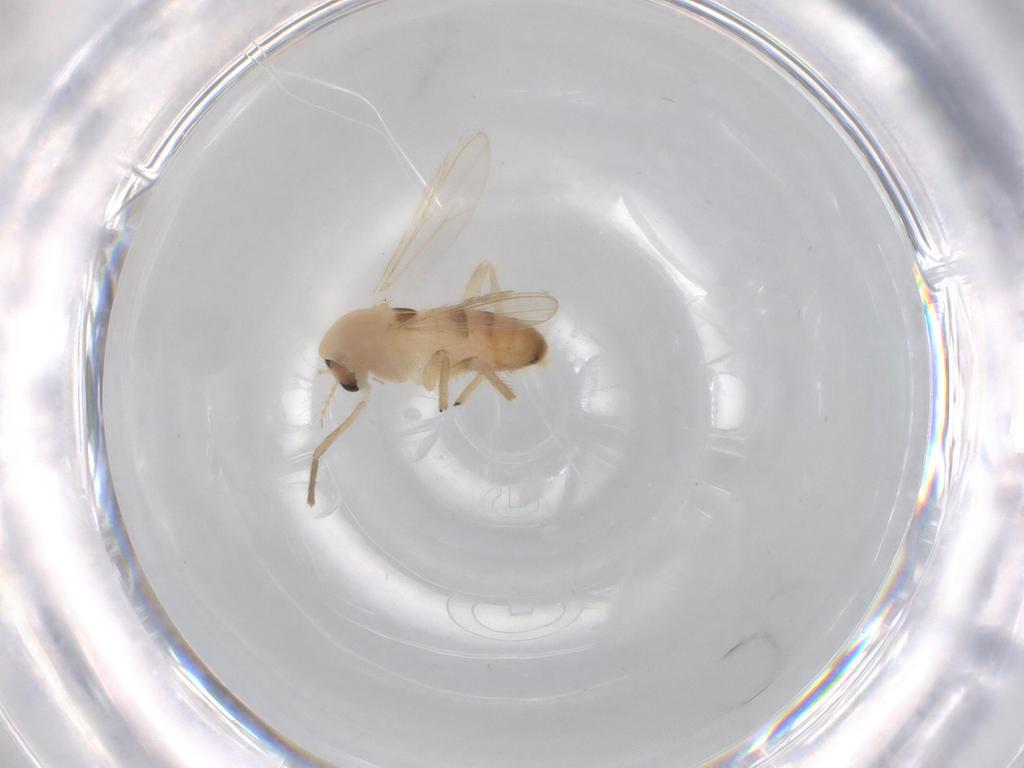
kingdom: Animalia
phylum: Arthropoda
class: Insecta
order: Diptera
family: Chironomidae
